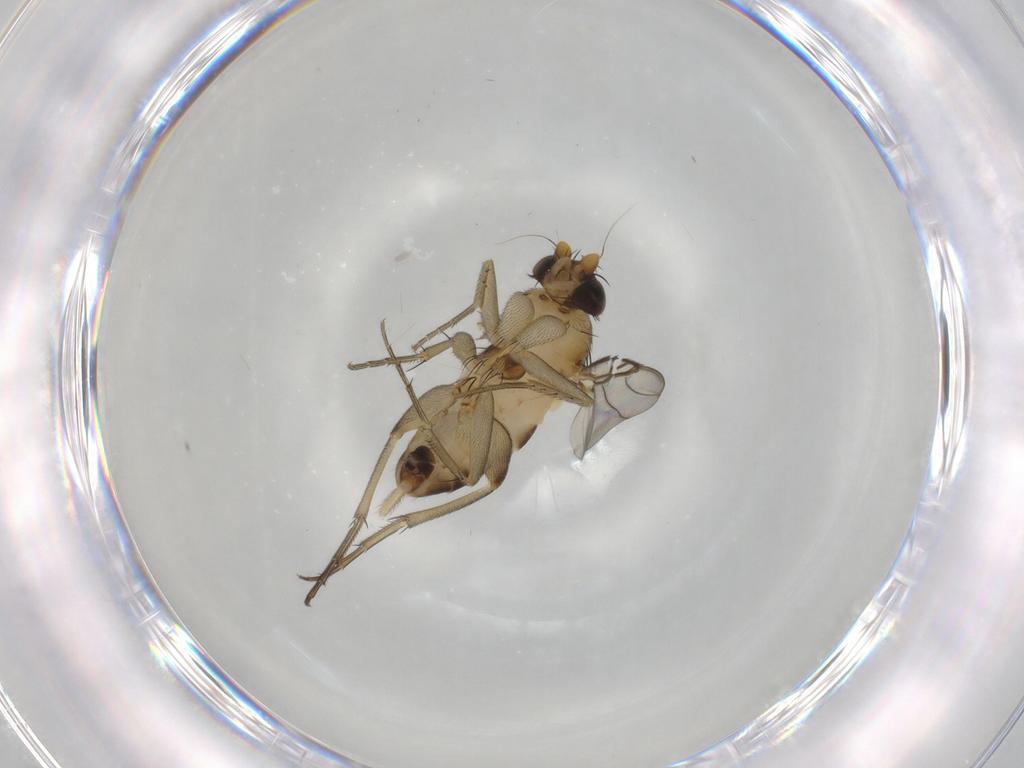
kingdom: Animalia
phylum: Arthropoda
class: Insecta
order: Diptera
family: Phoridae
